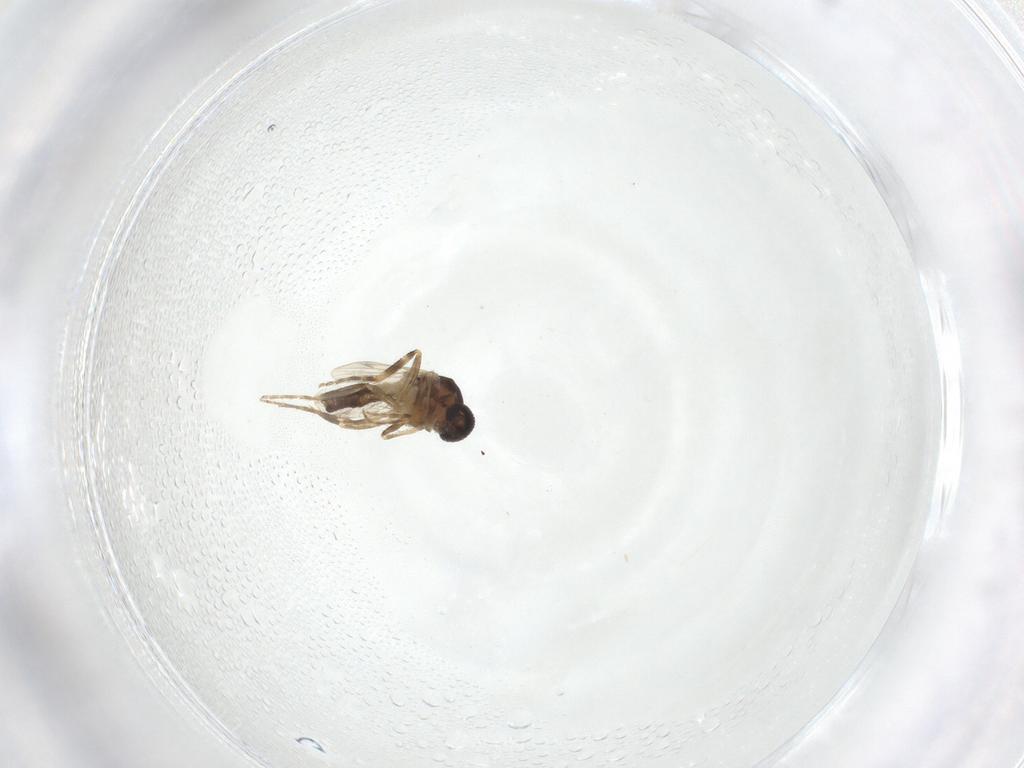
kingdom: Animalia
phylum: Arthropoda
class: Insecta
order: Diptera
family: Ceratopogonidae
